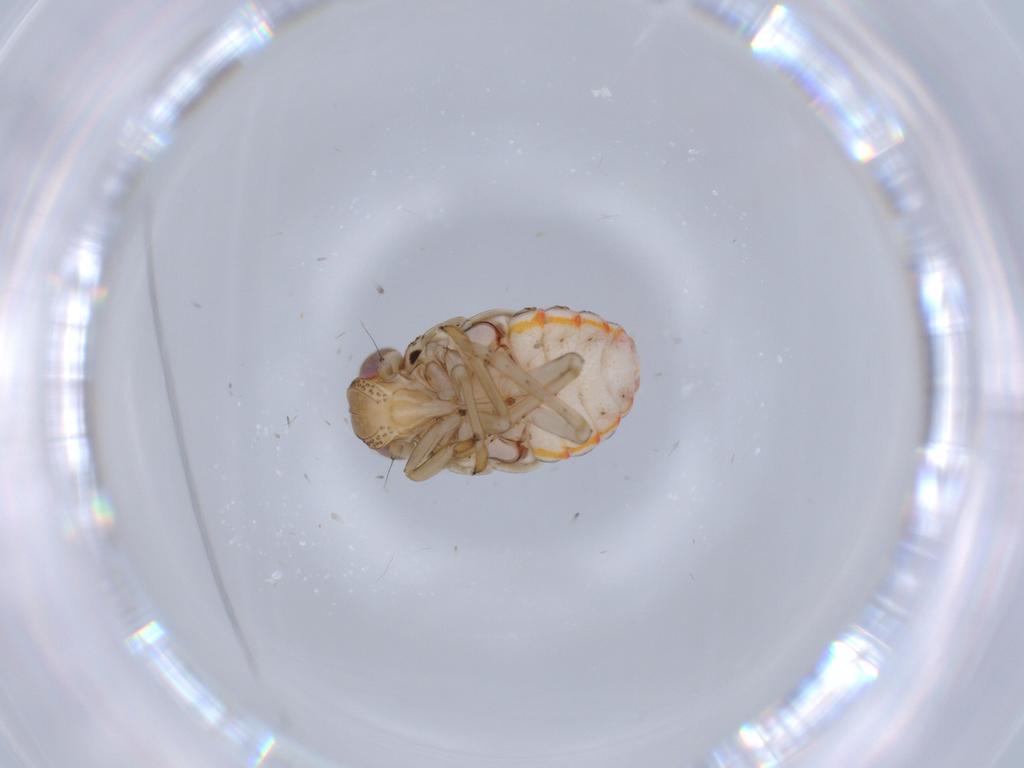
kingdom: Animalia
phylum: Arthropoda
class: Insecta
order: Hemiptera
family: Issidae
